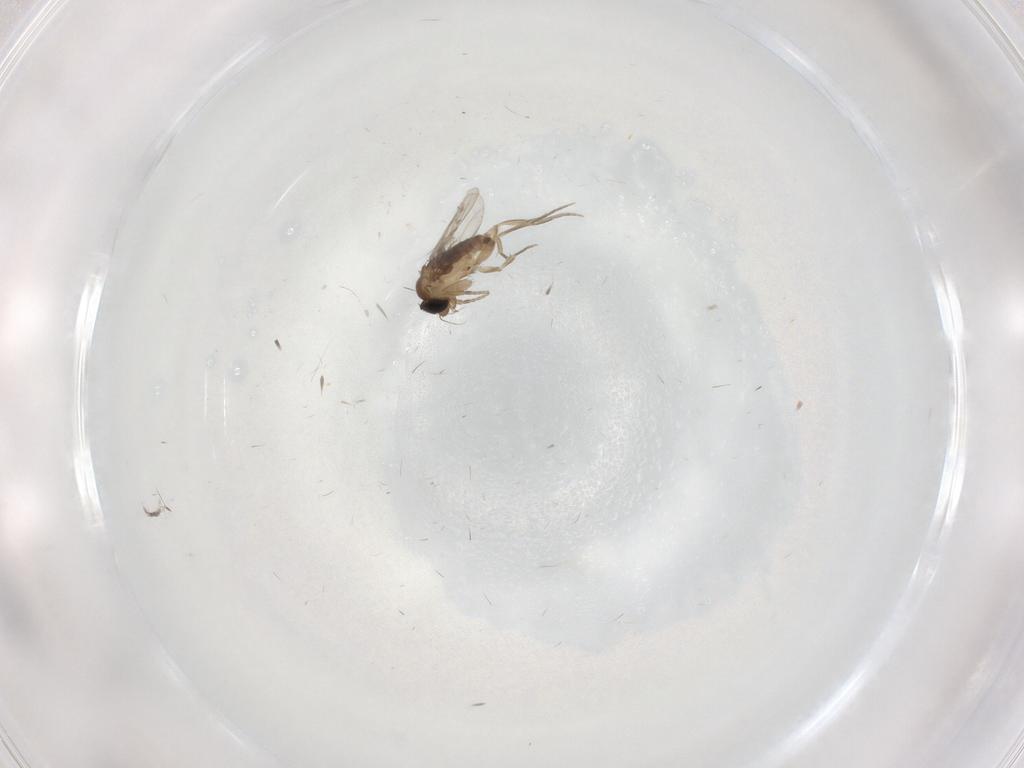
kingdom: Animalia
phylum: Arthropoda
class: Insecta
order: Diptera
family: Phoridae
